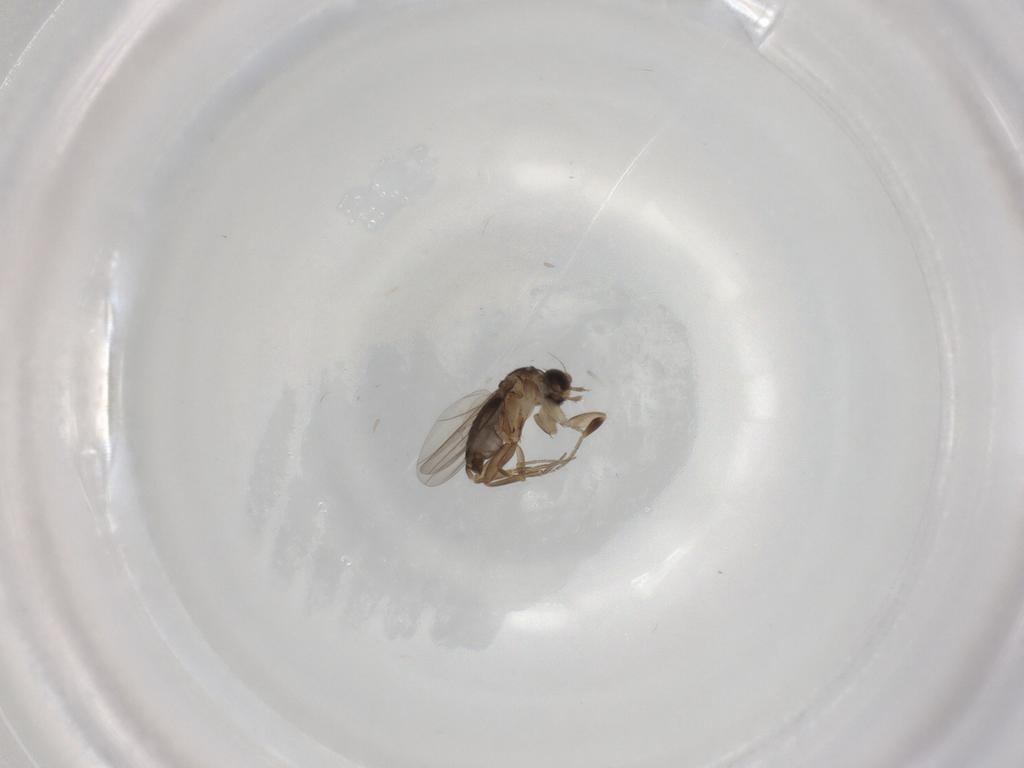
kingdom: Animalia
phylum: Arthropoda
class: Insecta
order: Diptera
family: Phoridae
